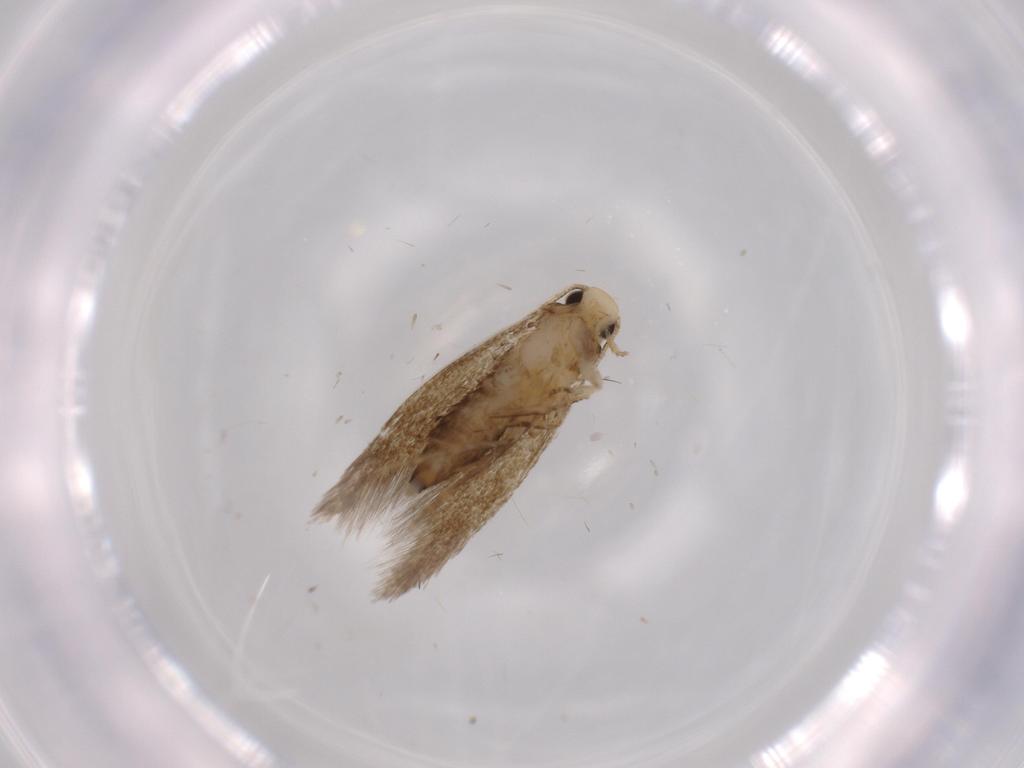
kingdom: Animalia
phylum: Arthropoda
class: Insecta
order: Lepidoptera
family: Tineidae
